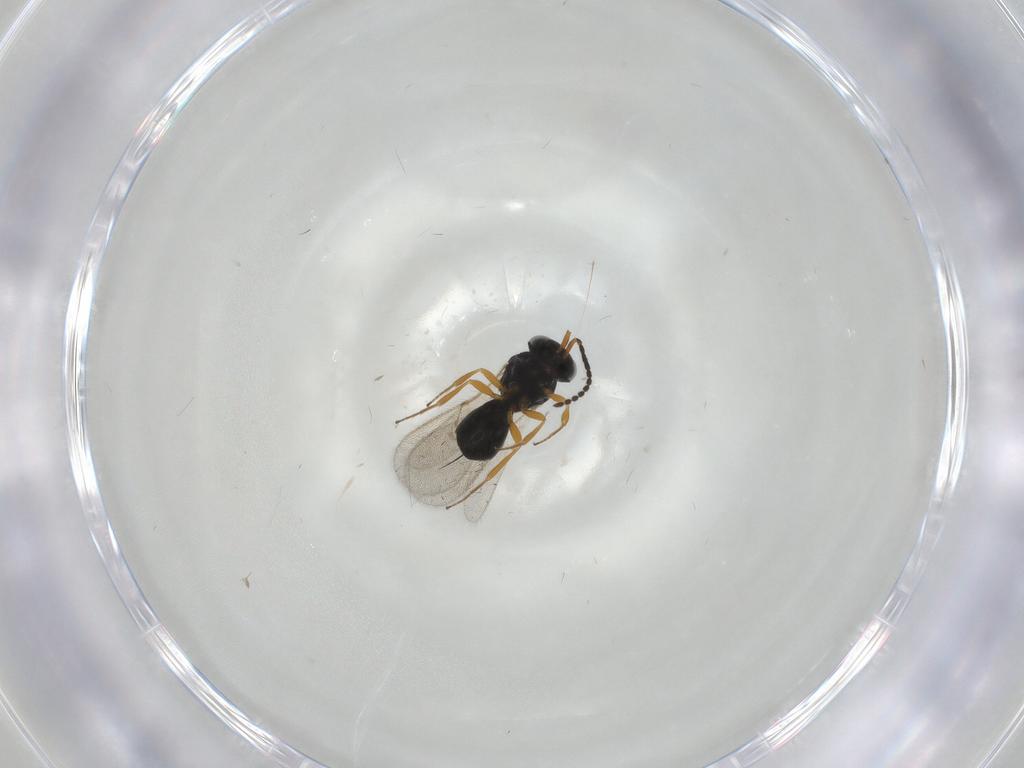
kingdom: Animalia
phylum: Arthropoda
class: Insecta
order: Hymenoptera
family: Scelionidae
